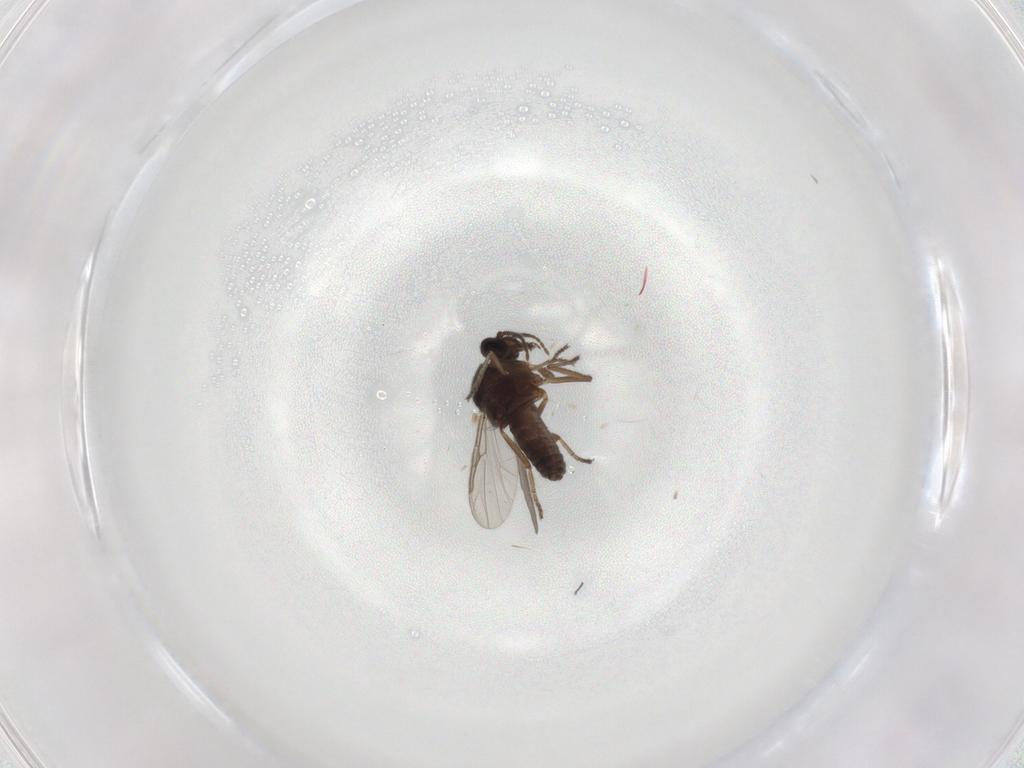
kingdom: Animalia
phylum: Arthropoda
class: Insecta
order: Diptera
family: Ceratopogonidae
